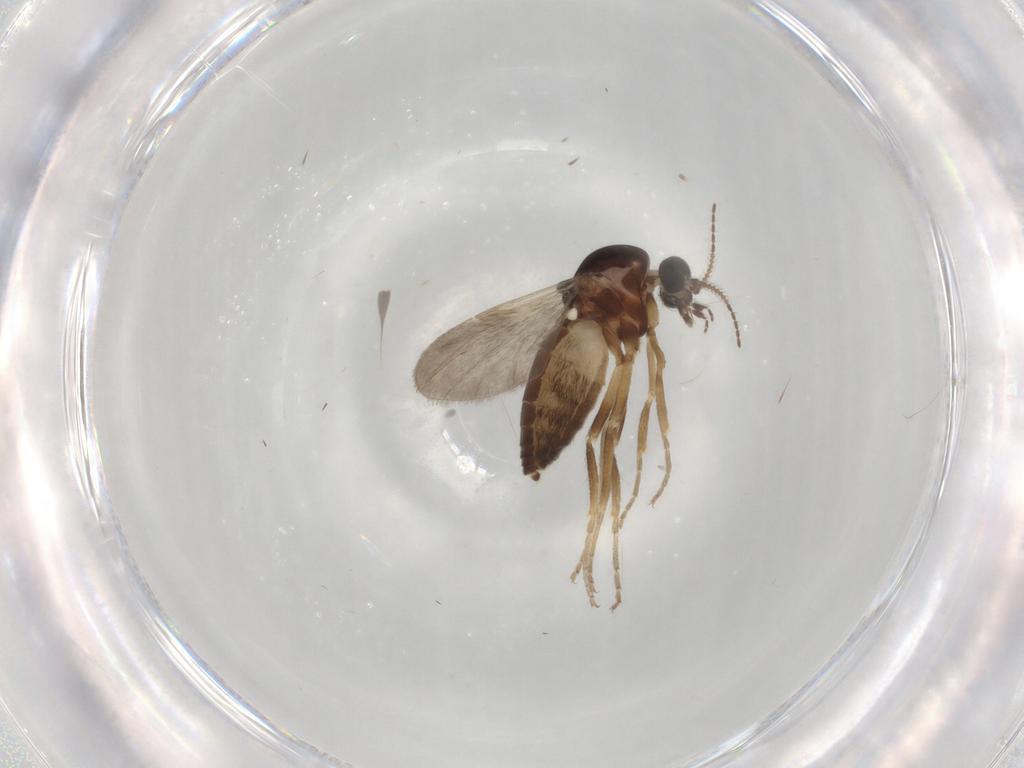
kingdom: Animalia
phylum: Arthropoda
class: Insecta
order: Diptera
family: Chloropidae
